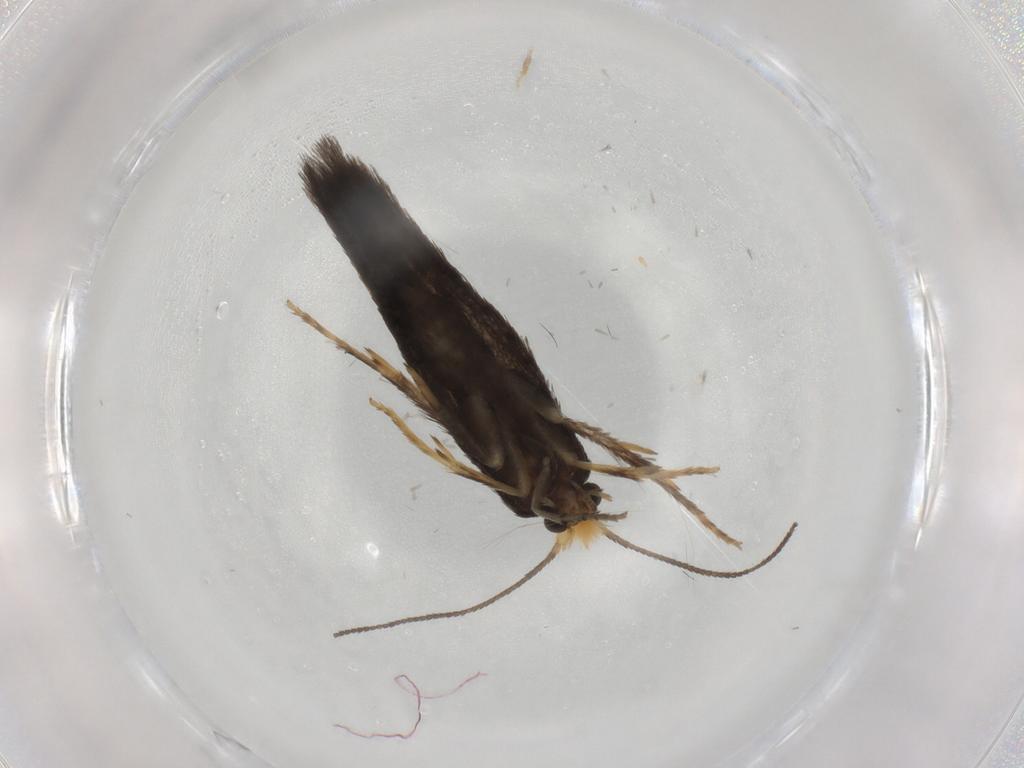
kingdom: Animalia
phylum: Arthropoda
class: Insecta
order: Lepidoptera
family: Nepticulidae
